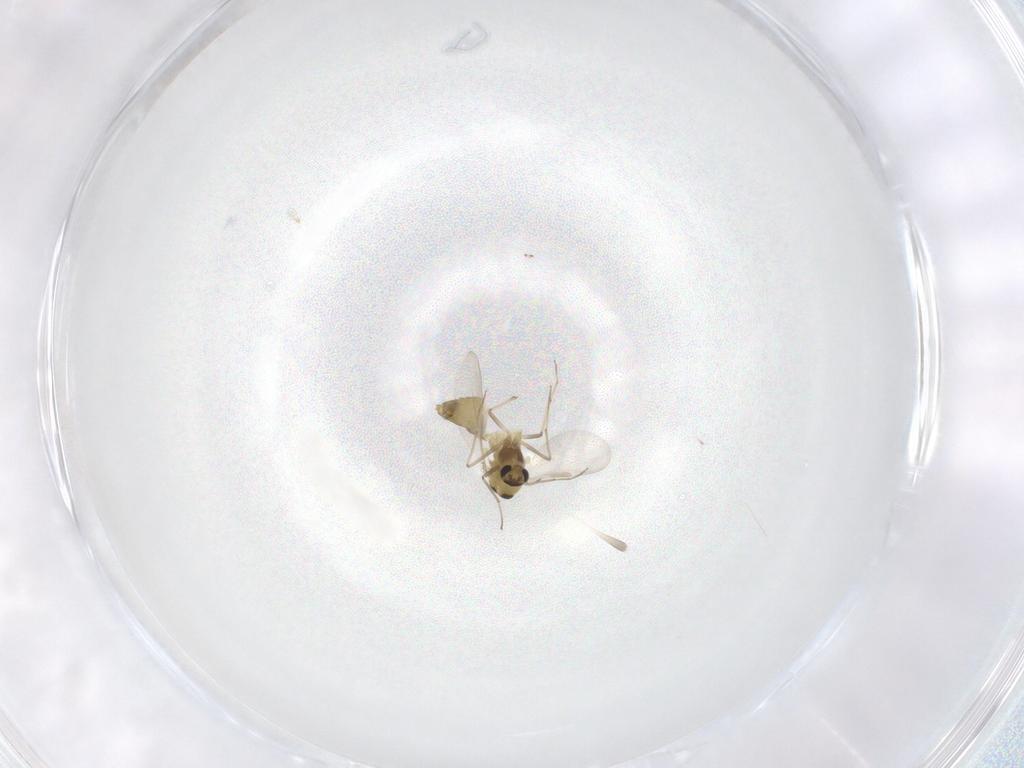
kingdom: Animalia
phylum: Arthropoda
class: Insecta
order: Diptera
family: Chironomidae
